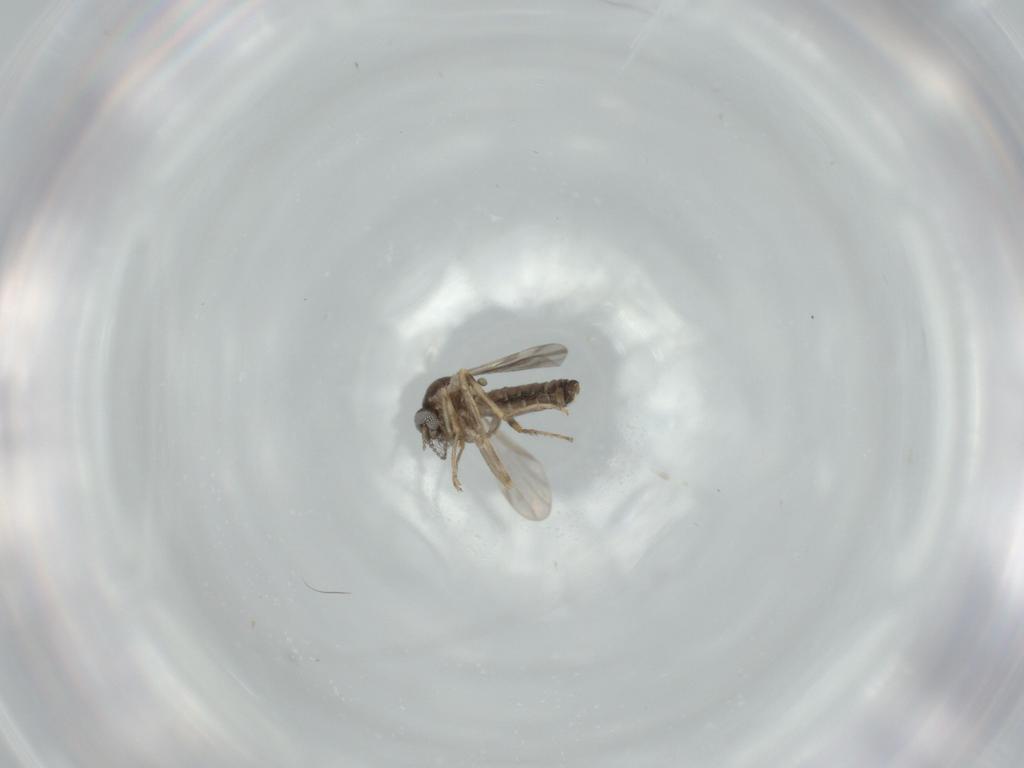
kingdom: Animalia
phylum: Arthropoda
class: Insecta
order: Diptera
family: Ceratopogonidae
